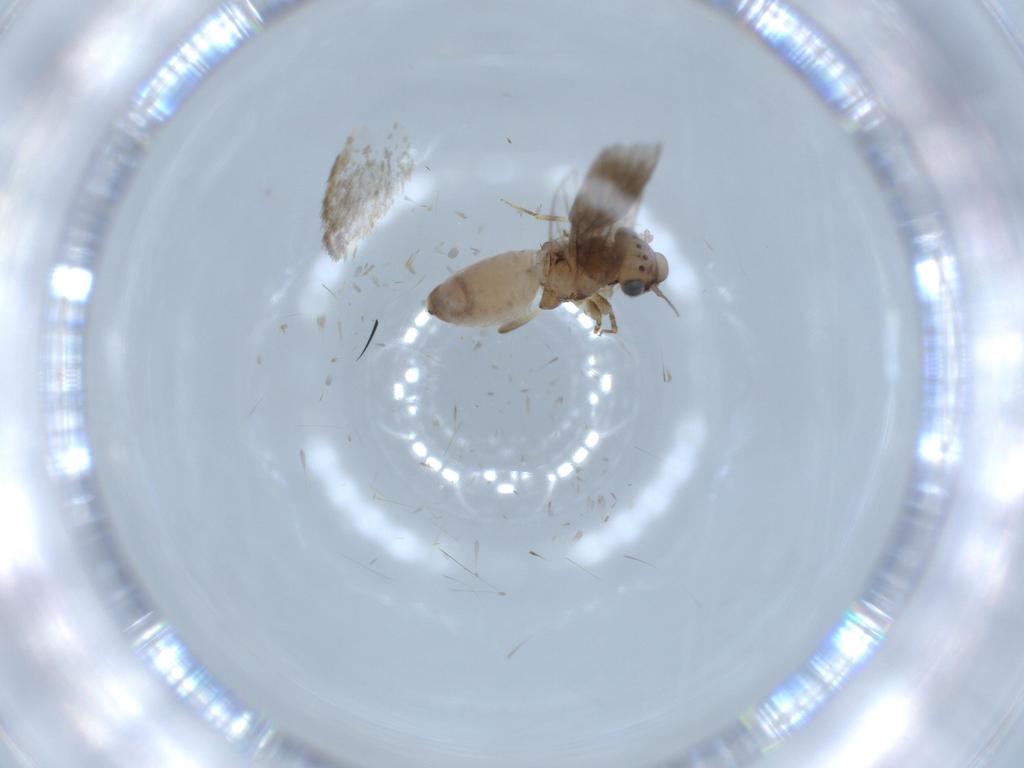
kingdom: Animalia
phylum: Arthropoda
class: Insecta
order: Psocodea
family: Lepidopsocidae
